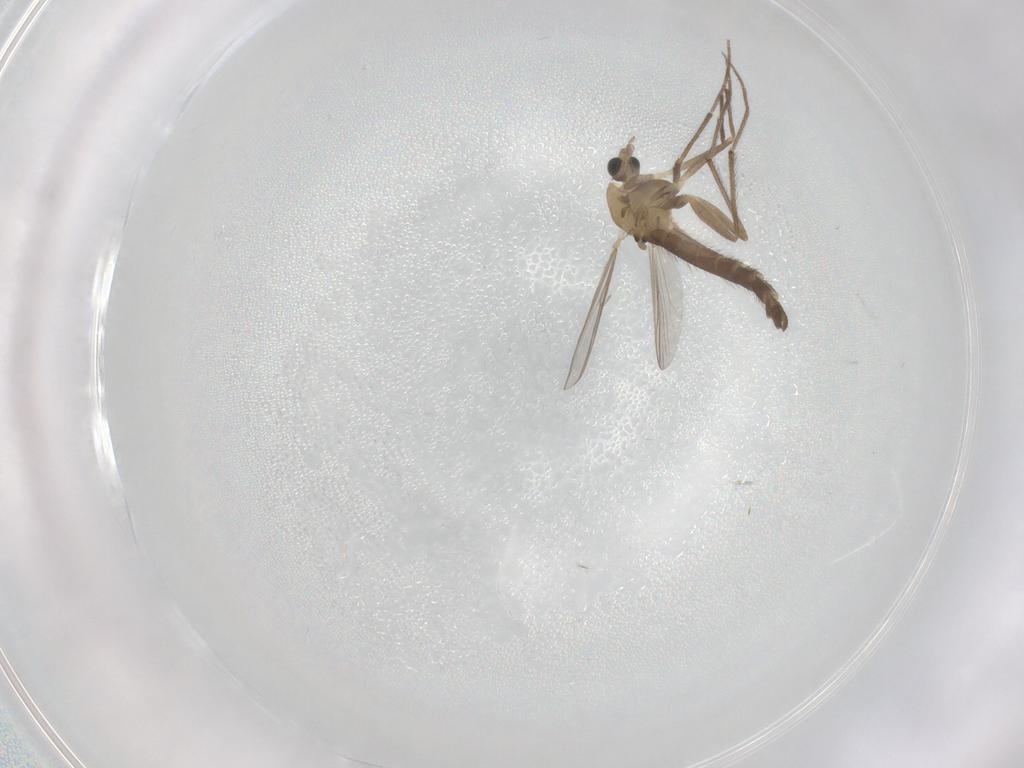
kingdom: Animalia
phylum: Arthropoda
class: Insecta
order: Diptera
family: Chironomidae
